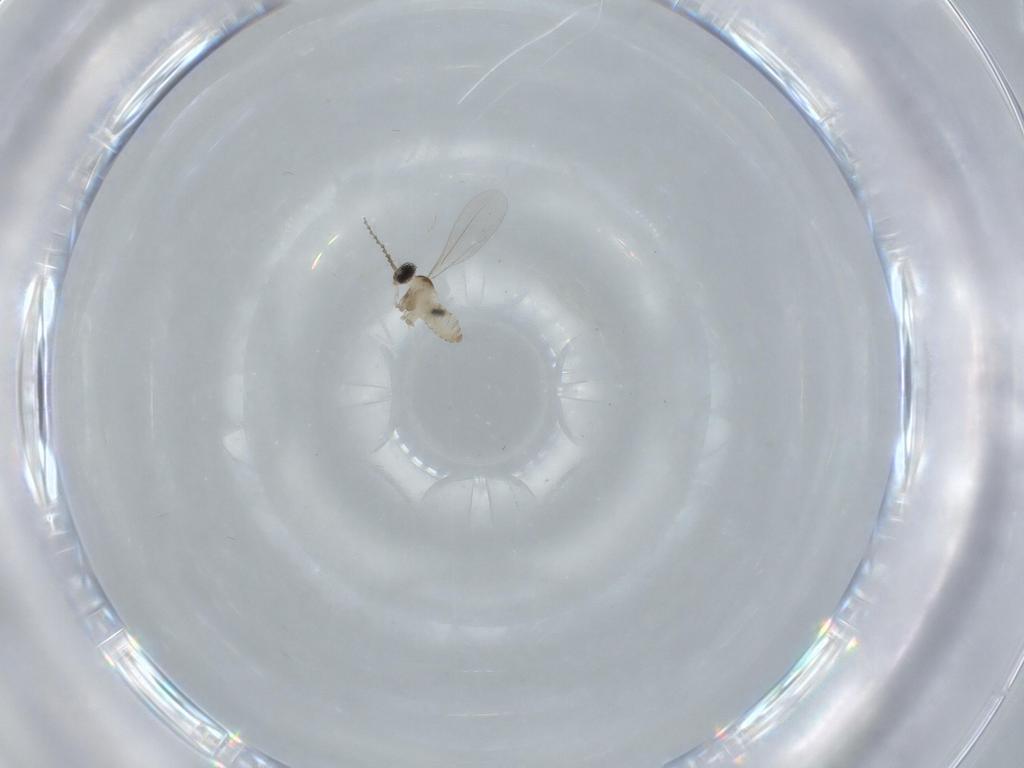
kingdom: Animalia
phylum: Arthropoda
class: Insecta
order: Diptera
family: Cecidomyiidae
